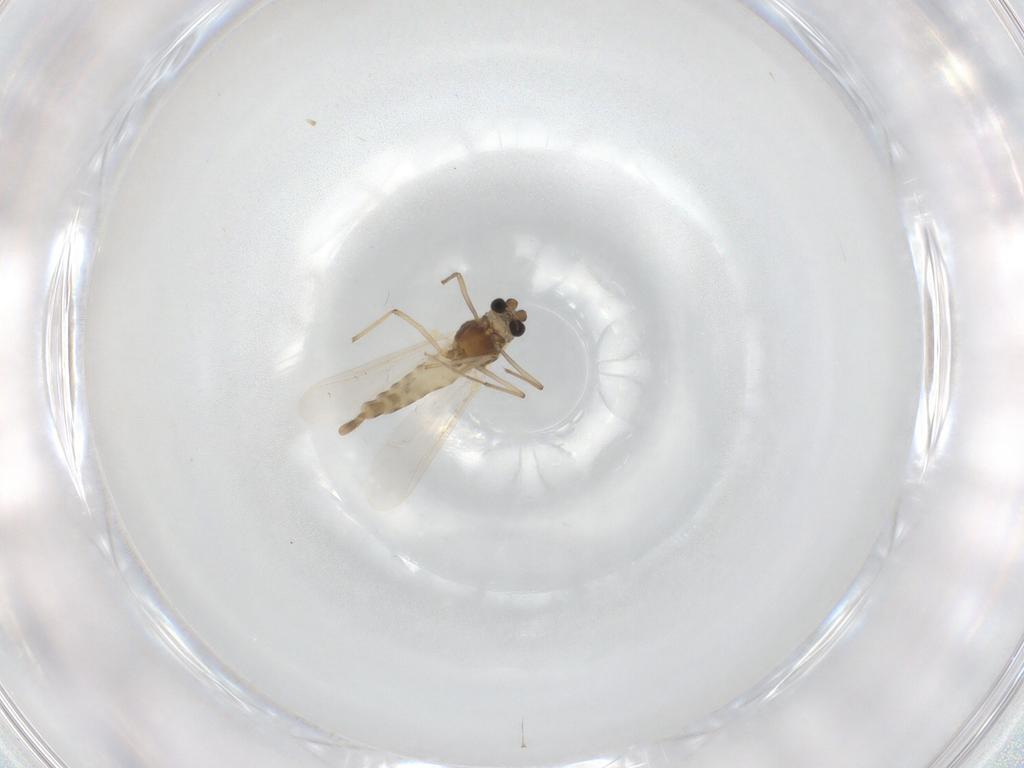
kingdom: Animalia
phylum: Arthropoda
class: Insecta
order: Diptera
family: Chironomidae
